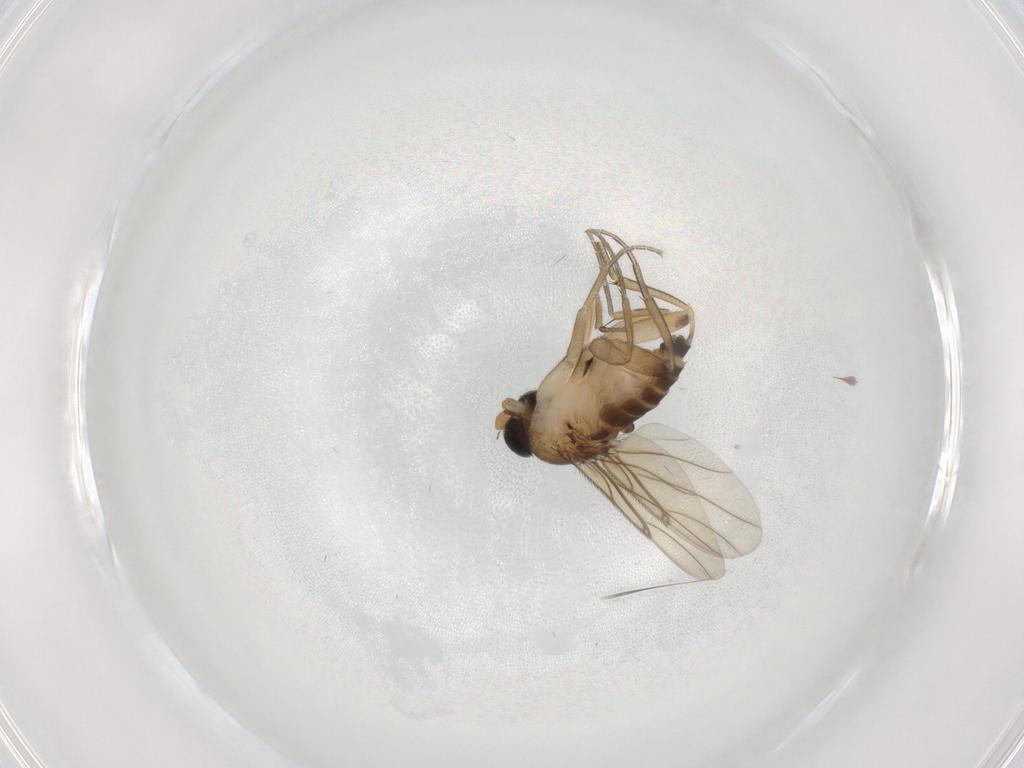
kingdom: Animalia
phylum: Arthropoda
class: Insecta
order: Diptera
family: Phoridae
